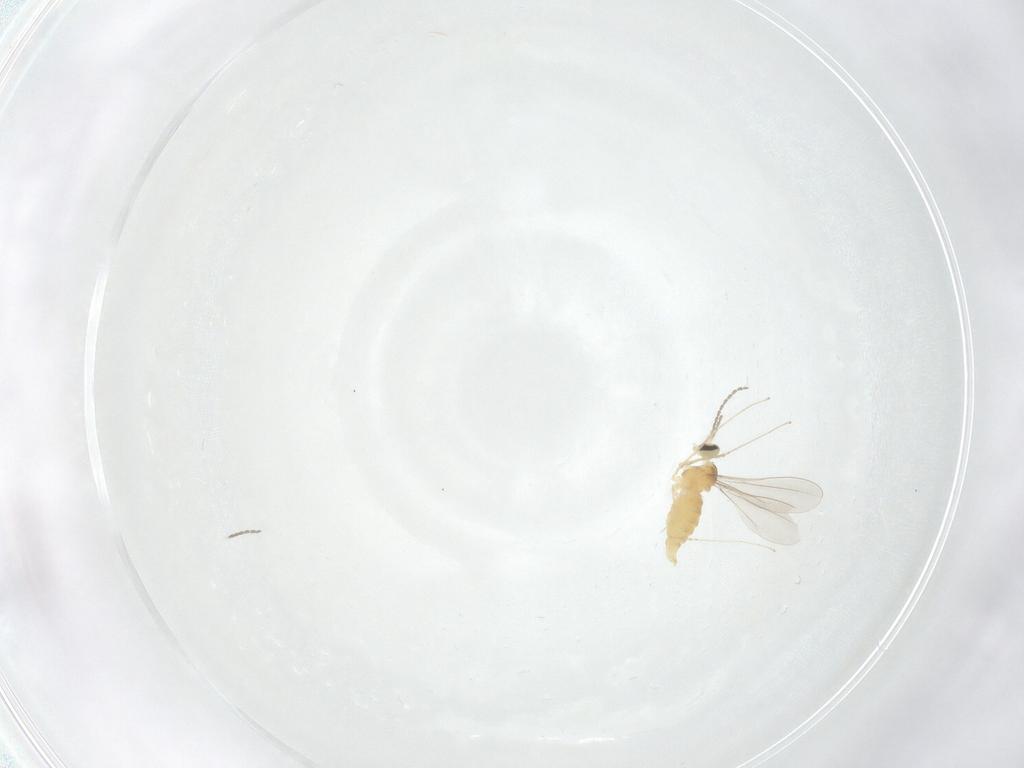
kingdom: Animalia
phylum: Arthropoda
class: Insecta
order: Diptera
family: Cecidomyiidae
